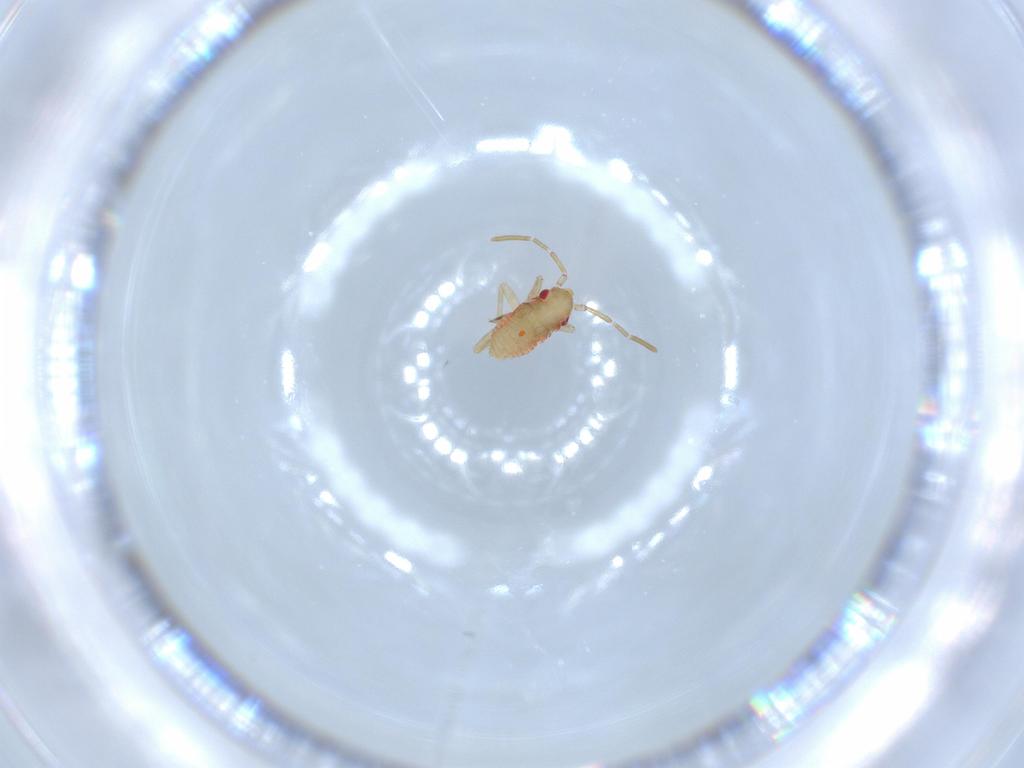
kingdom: Animalia
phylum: Arthropoda
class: Insecta
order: Hemiptera
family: Miridae
